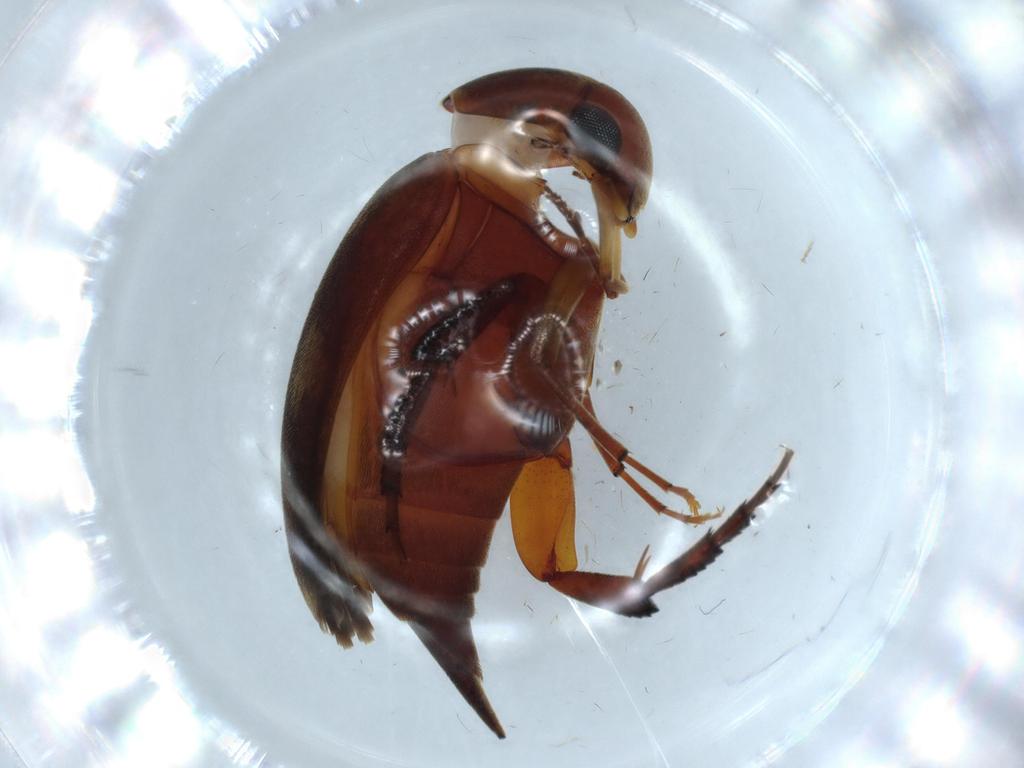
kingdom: Animalia
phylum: Arthropoda
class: Insecta
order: Coleoptera
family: Mordellidae
